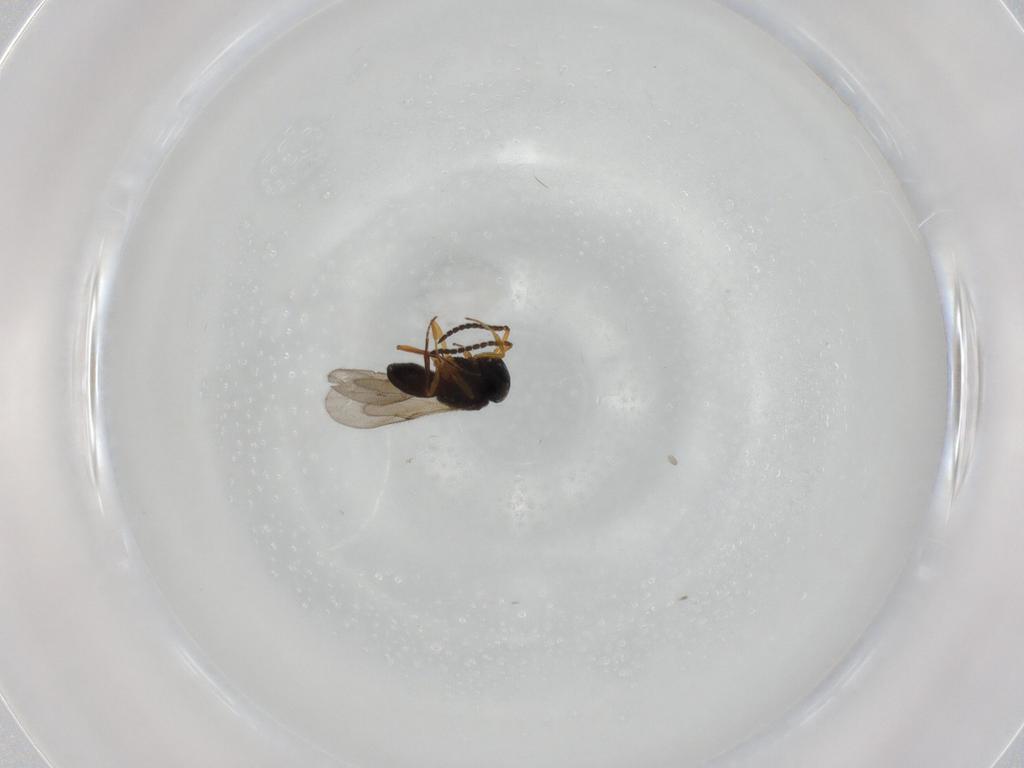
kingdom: Animalia
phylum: Arthropoda
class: Insecta
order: Hymenoptera
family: Scelionidae
